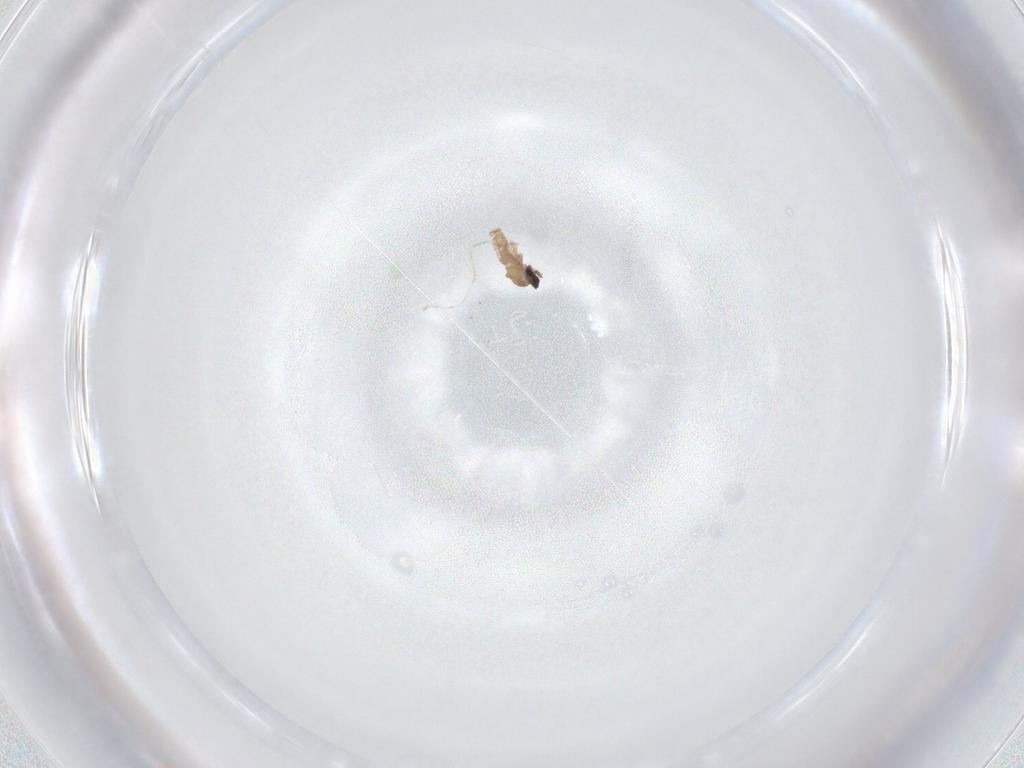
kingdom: Animalia
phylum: Arthropoda
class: Insecta
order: Diptera
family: Cecidomyiidae
